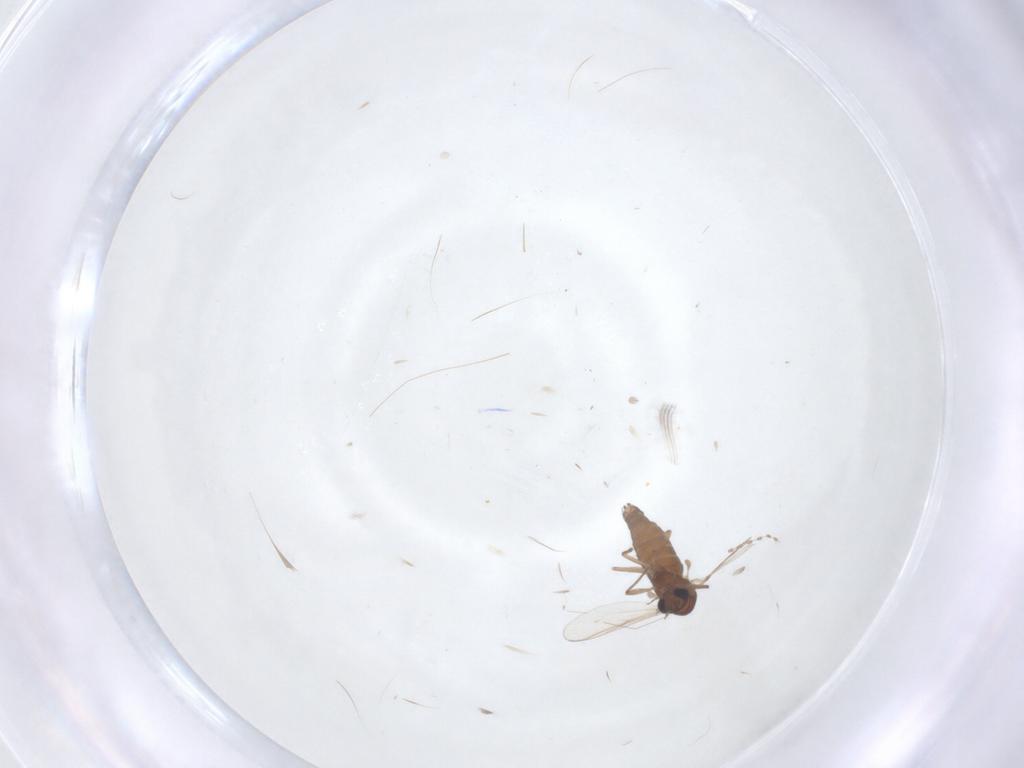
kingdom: Animalia
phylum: Arthropoda
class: Insecta
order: Diptera
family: Cecidomyiidae
